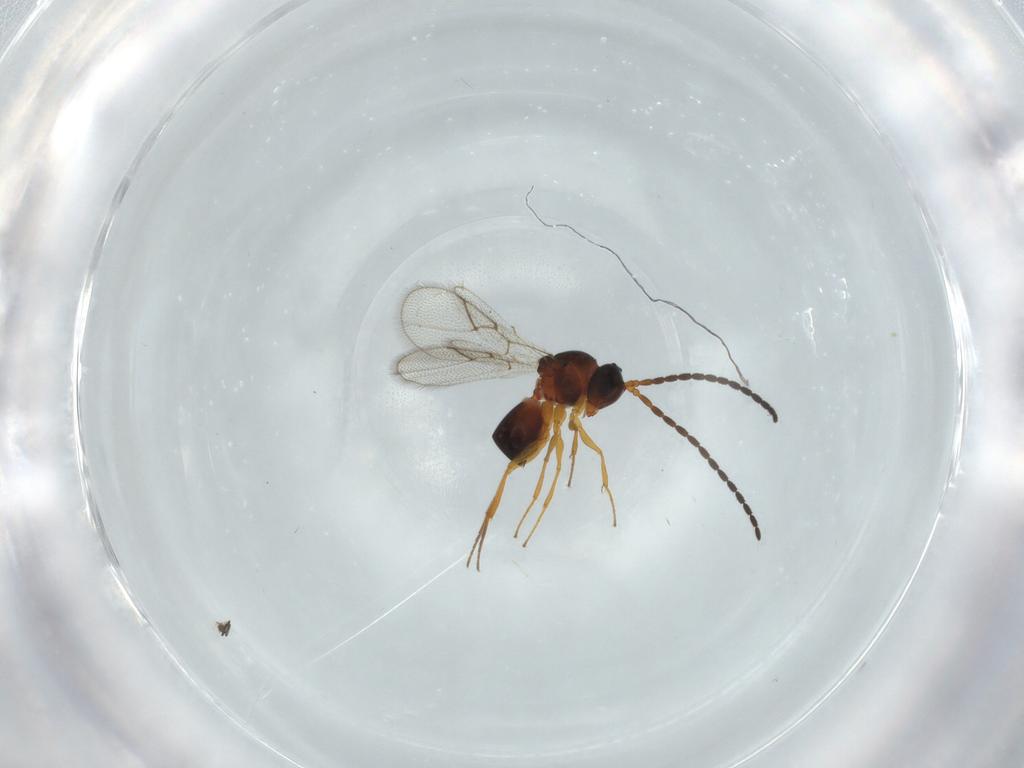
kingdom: Animalia
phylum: Arthropoda
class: Insecta
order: Hymenoptera
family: Figitidae
